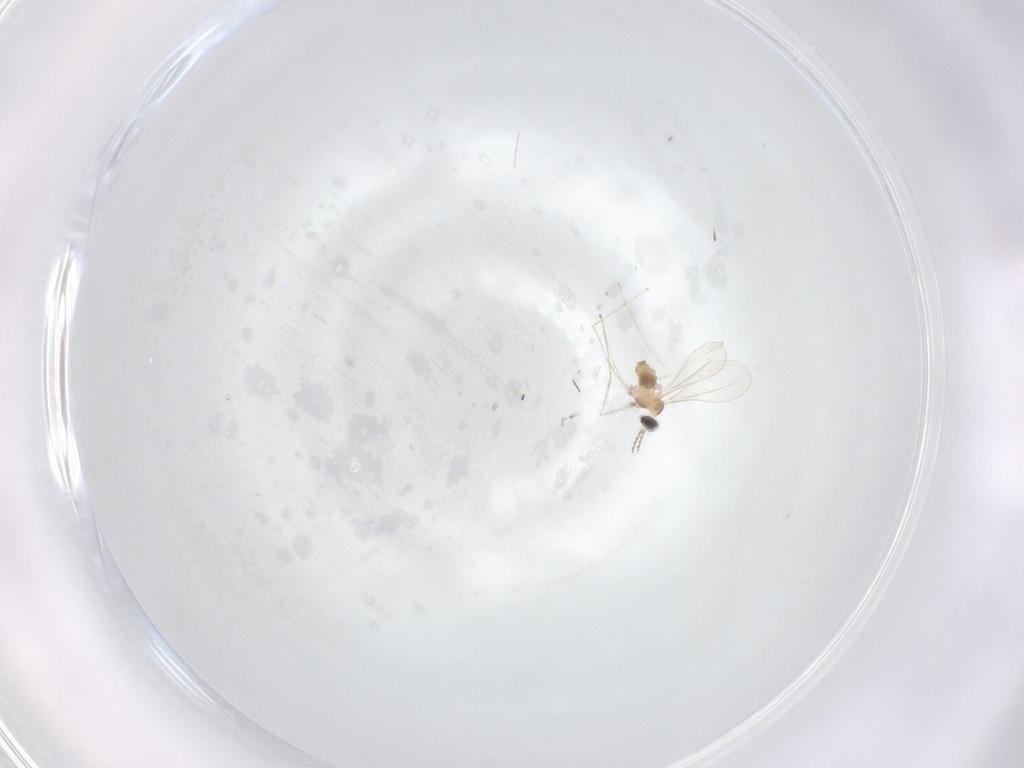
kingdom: Animalia
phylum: Arthropoda
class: Insecta
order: Diptera
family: Cecidomyiidae
